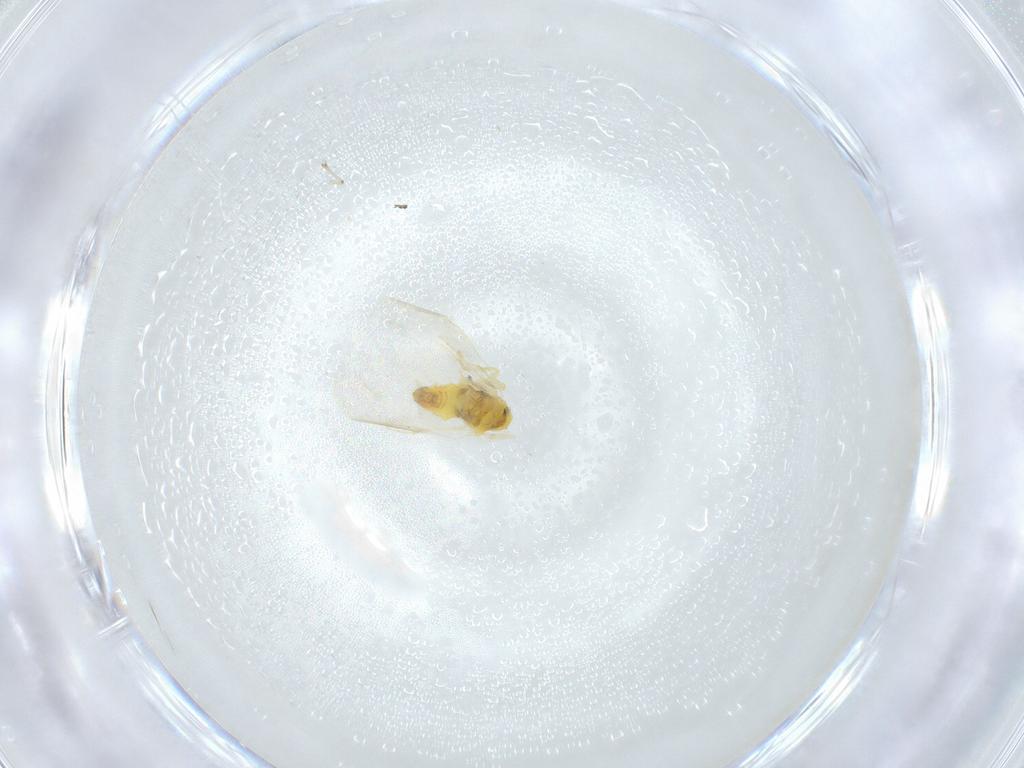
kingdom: Animalia
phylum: Arthropoda
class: Insecta
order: Hemiptera
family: Aleyrodidae
